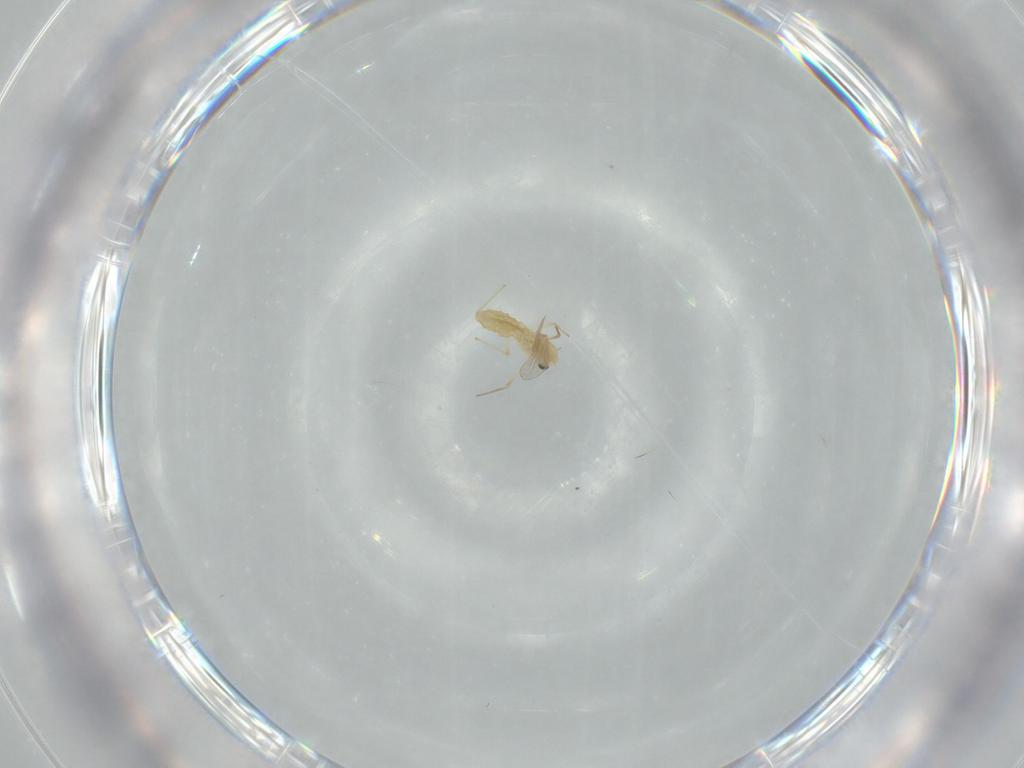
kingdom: Animalia
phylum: Arthropoda
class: Insecta
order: Diptera
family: Chironomidae
